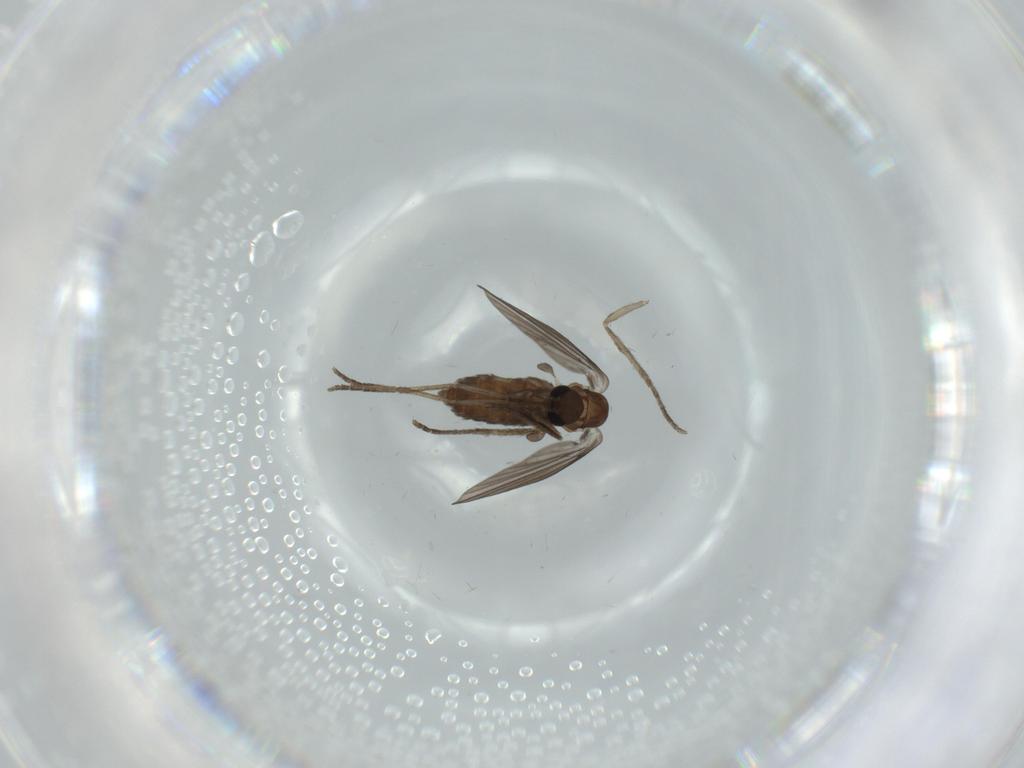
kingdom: Animalia
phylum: Arthropoda
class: Insecta
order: Diptera
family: Psychodidae
